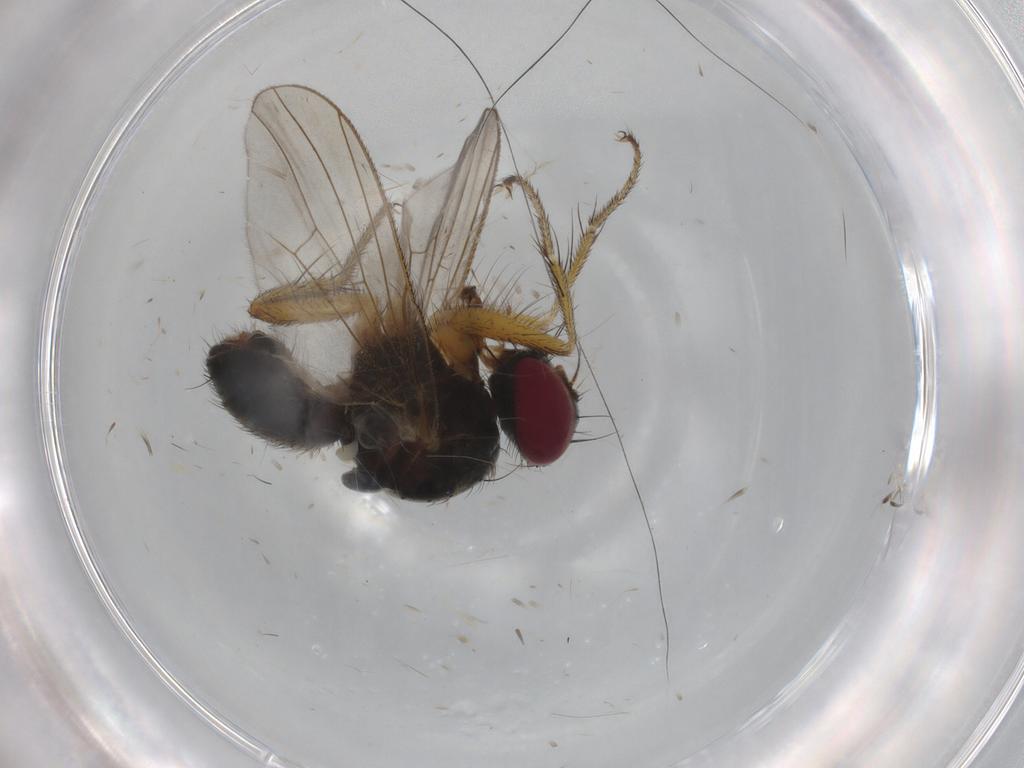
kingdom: Animalia
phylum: Arthropoda
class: Insecta
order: Diptera
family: Muscidae
